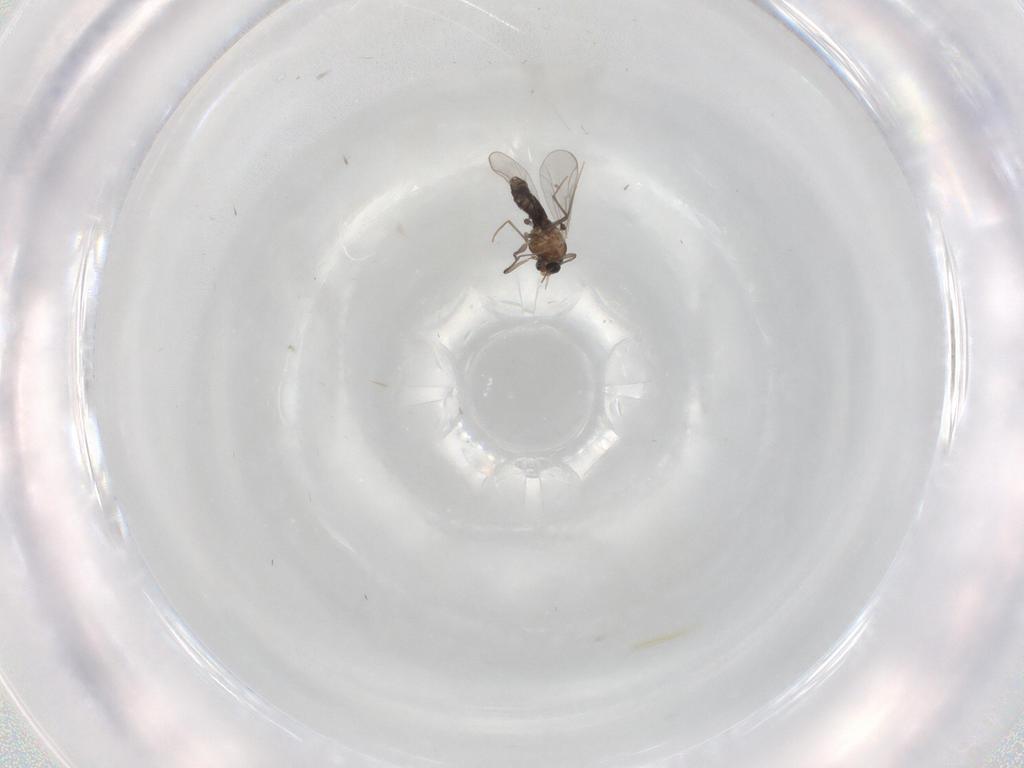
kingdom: Animalia
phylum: Arthropoda
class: Insecta
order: Diptera
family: Chironomidae
